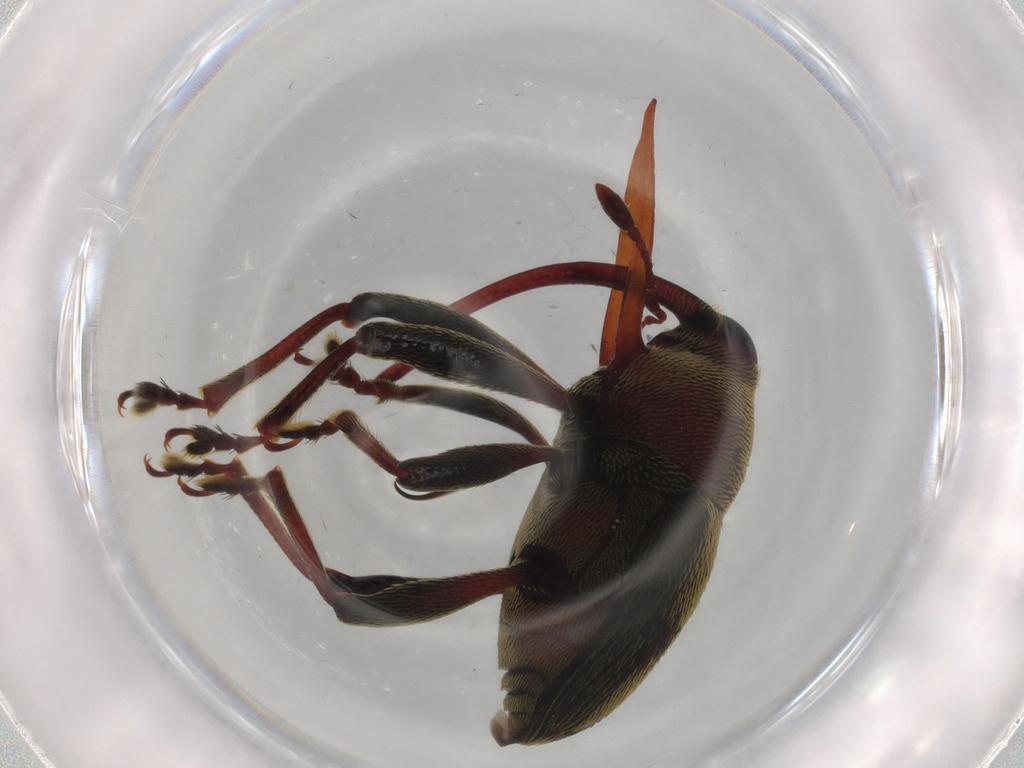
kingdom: Animalia
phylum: Arthropoda
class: Insecta
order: Coleoptera
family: Curculionidae
